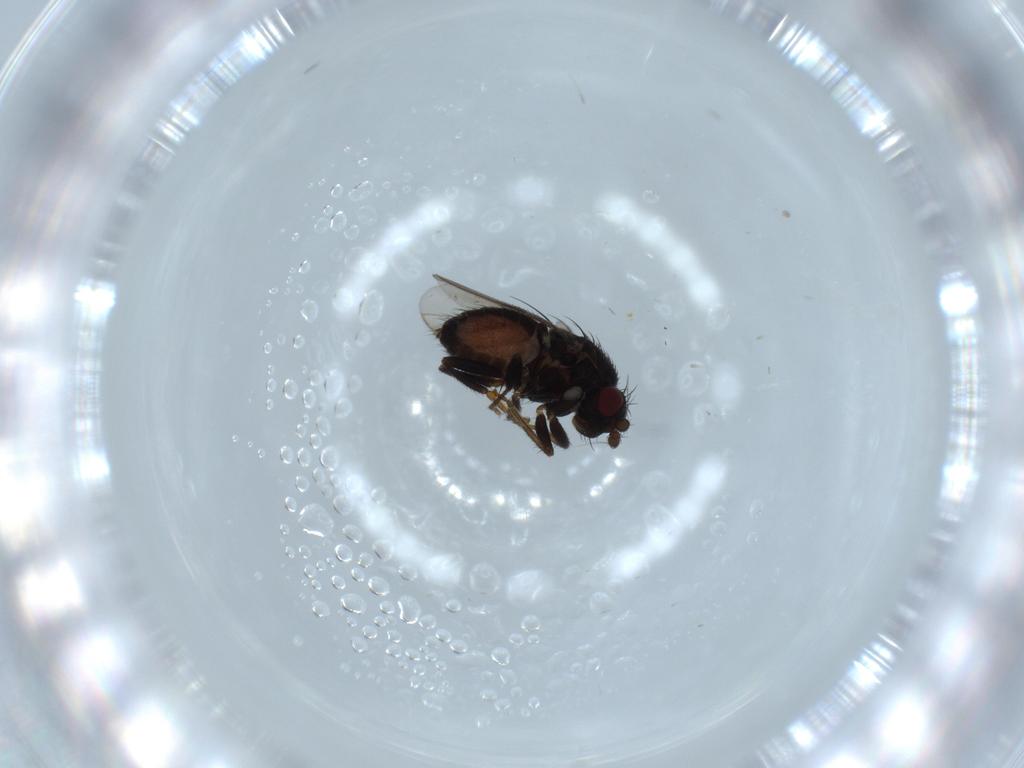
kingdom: Animalia
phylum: Arthropoda
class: Insecta
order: Diptera
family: Sphaeroceridae
